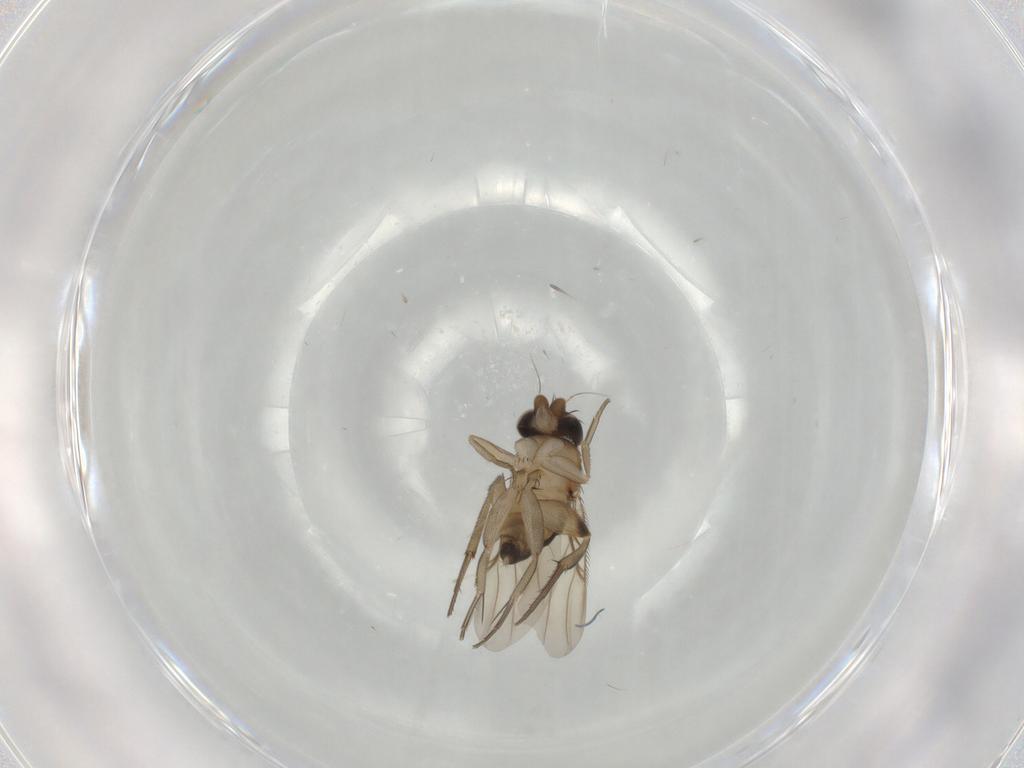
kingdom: Animalia
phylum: Arthropoda
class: Insecta
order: Diptera
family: Phoridae
